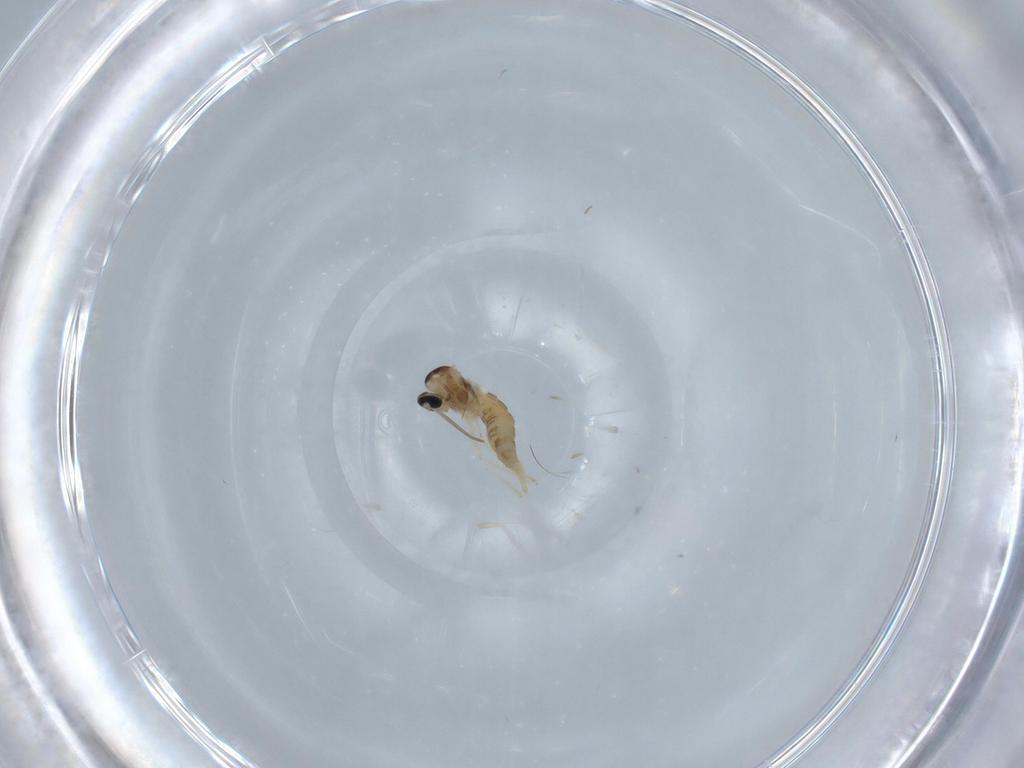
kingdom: Animalia
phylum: Arthropoda
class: Insecta
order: Diptera
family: Cecidomyiidae
